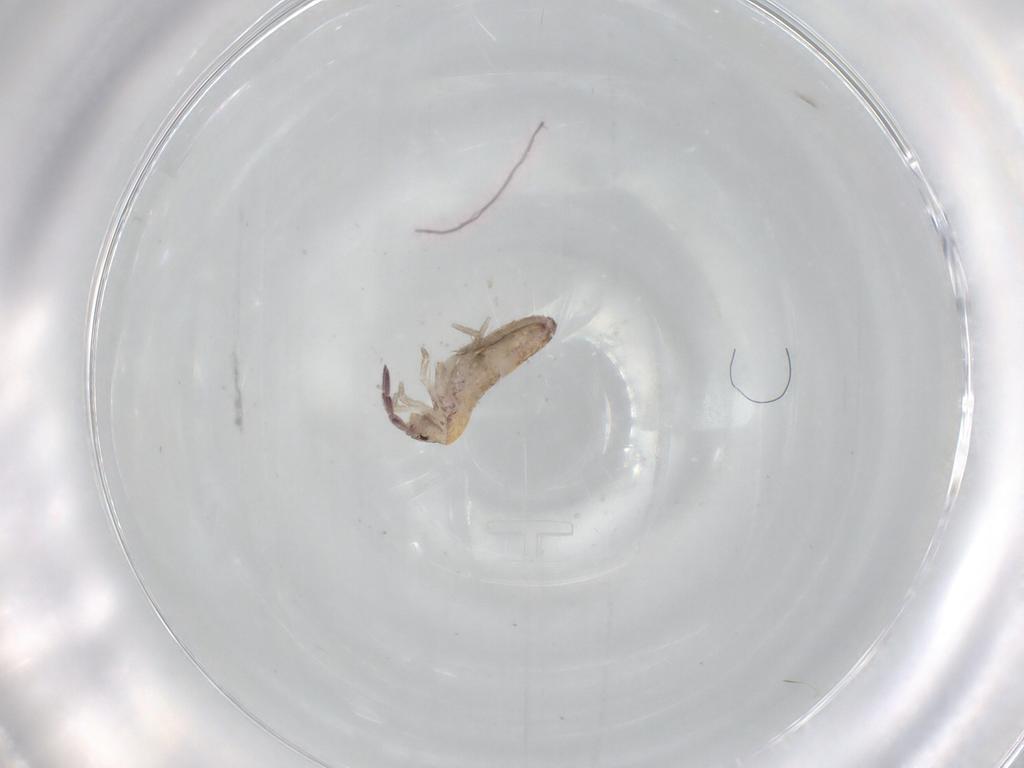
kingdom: Animalia
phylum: Arthropoda
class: Collembola
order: Entomobryomorpha
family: Entomobryidae
